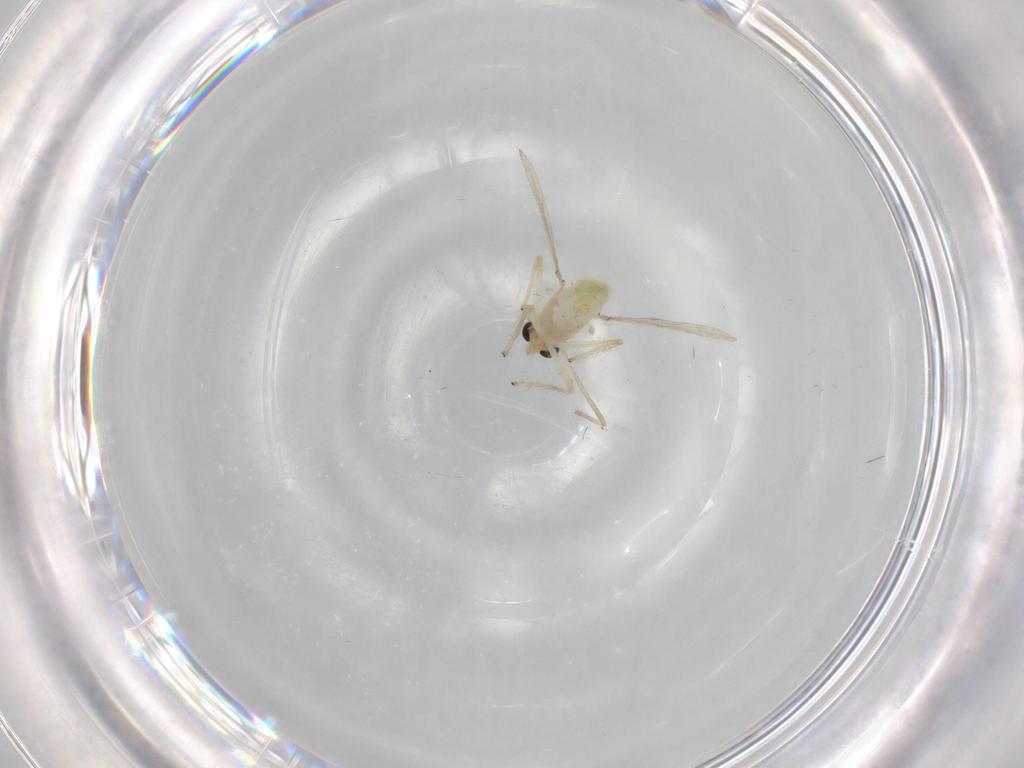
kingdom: Animalia
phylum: Arthropoda
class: Insecta
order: Diptera
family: Chironomidae
